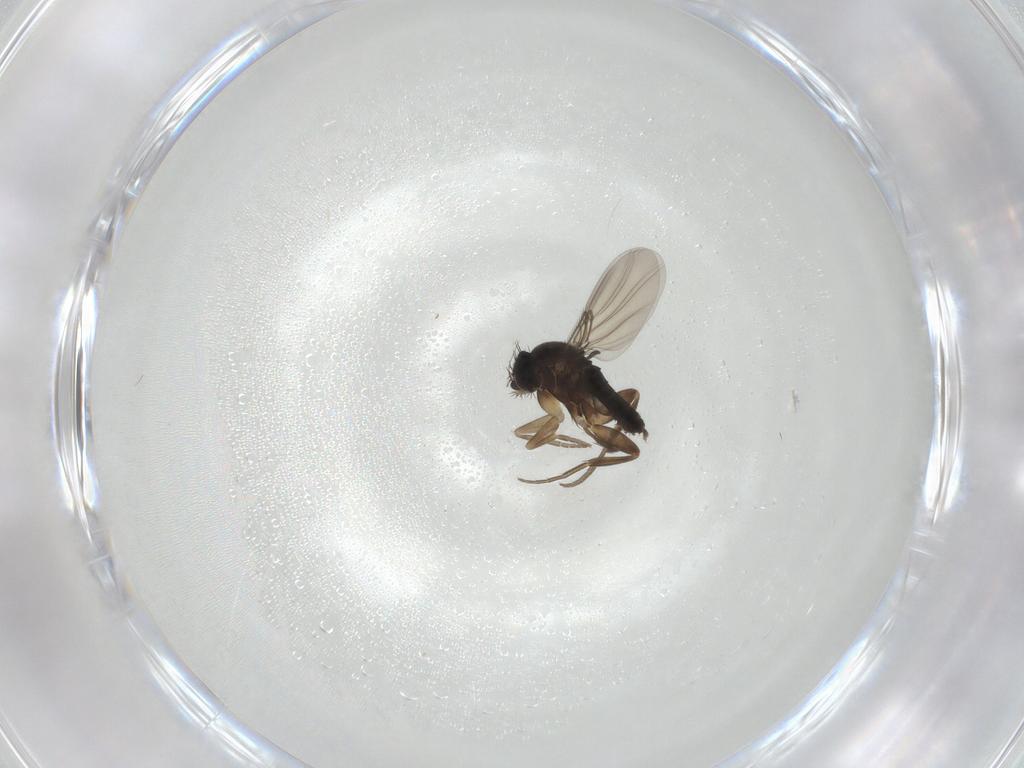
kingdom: Animalia
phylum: Arthropoda
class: Insecta
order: Diptera
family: Phoridae
